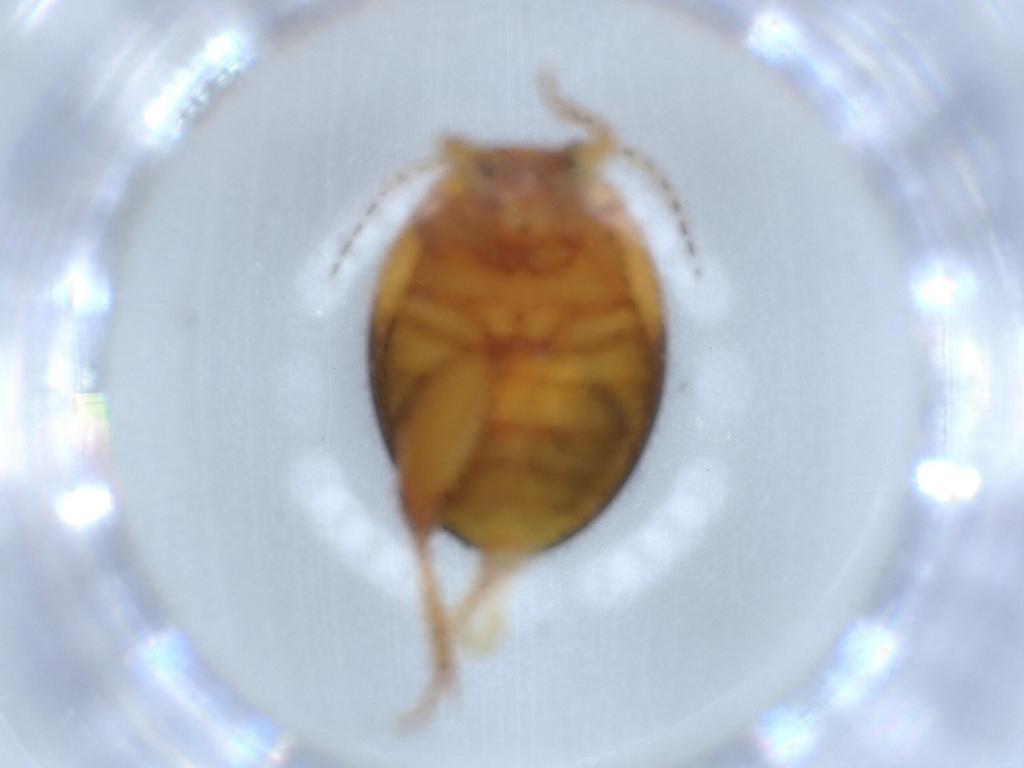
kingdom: Animalia
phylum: Arthropoda
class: Insecta
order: Coleoptera
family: Scirtidae
